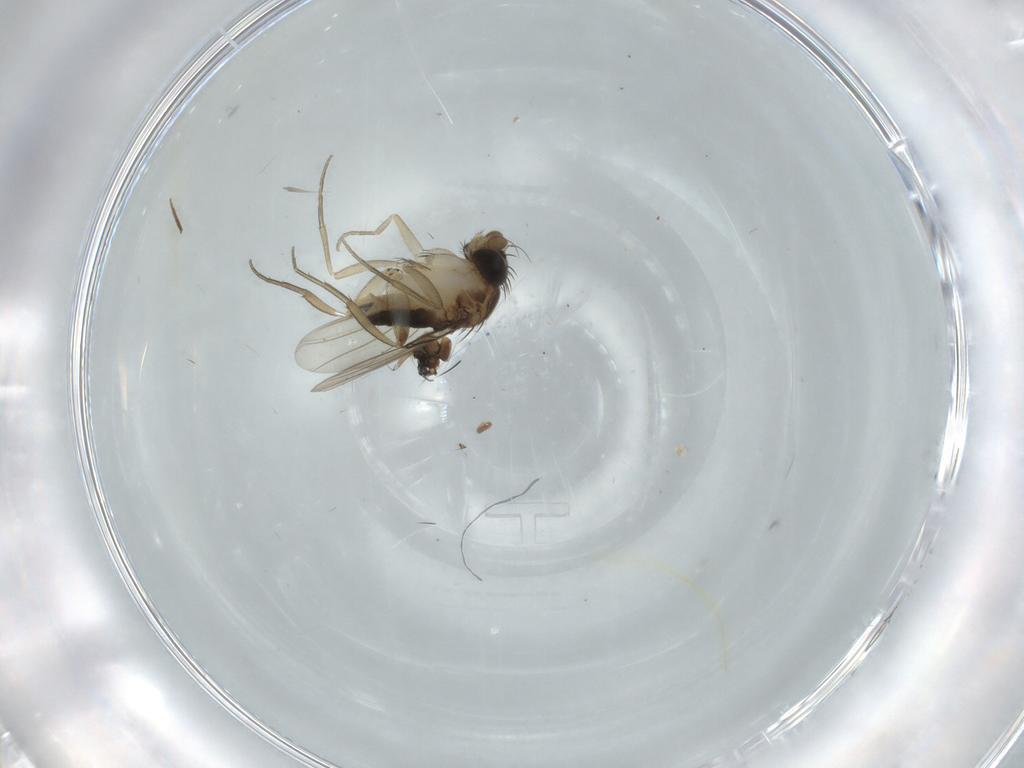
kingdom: Animalia
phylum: Arthropoda
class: Insecta
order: Diptera
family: Phoridae
